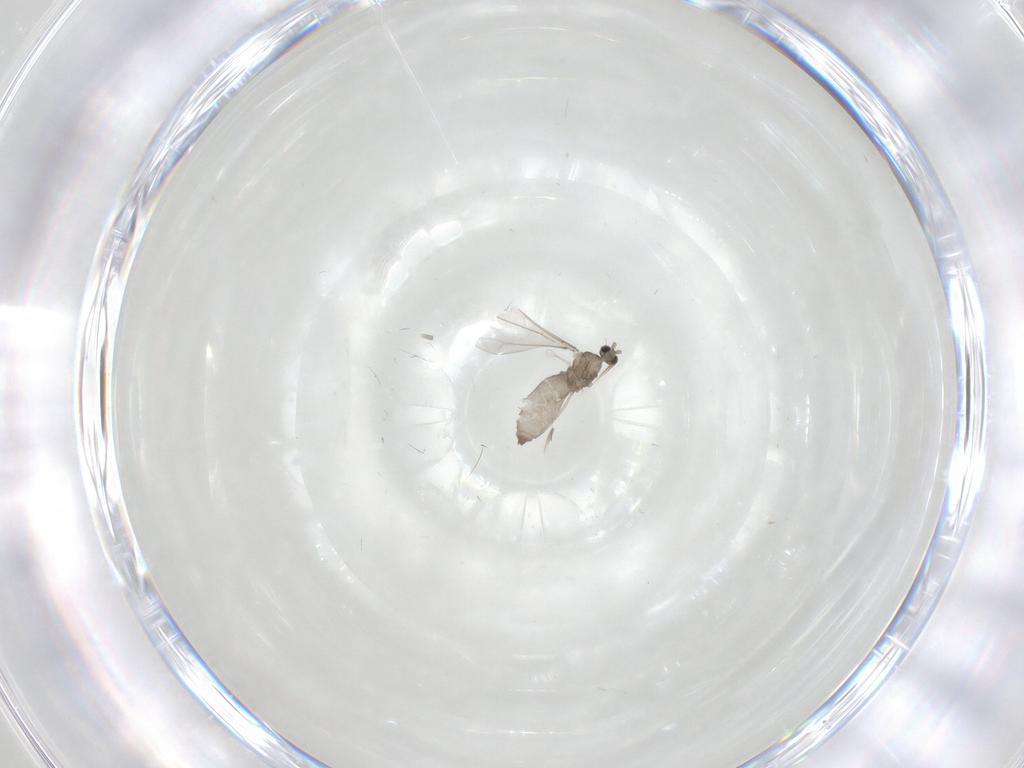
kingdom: Animalia
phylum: Arthropoda
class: Insecta
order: Diptera
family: Cecidomyiidae
